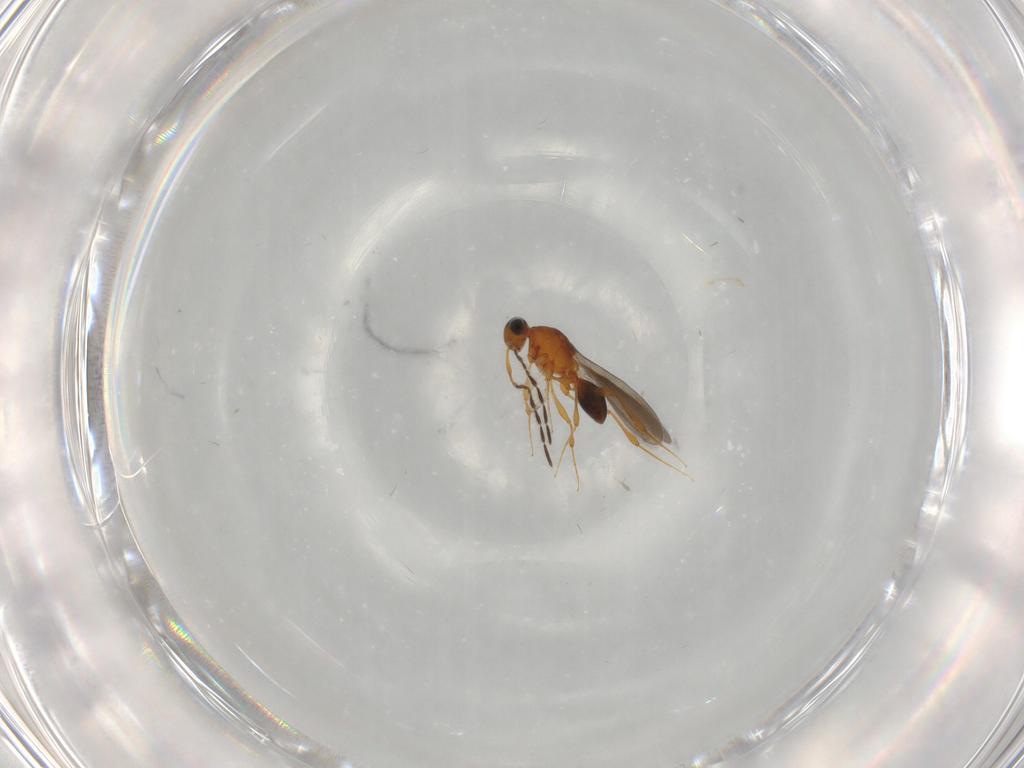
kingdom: Animalia
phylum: Arthropoda
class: Insecta
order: Hymenoptera
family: Platygastridae
